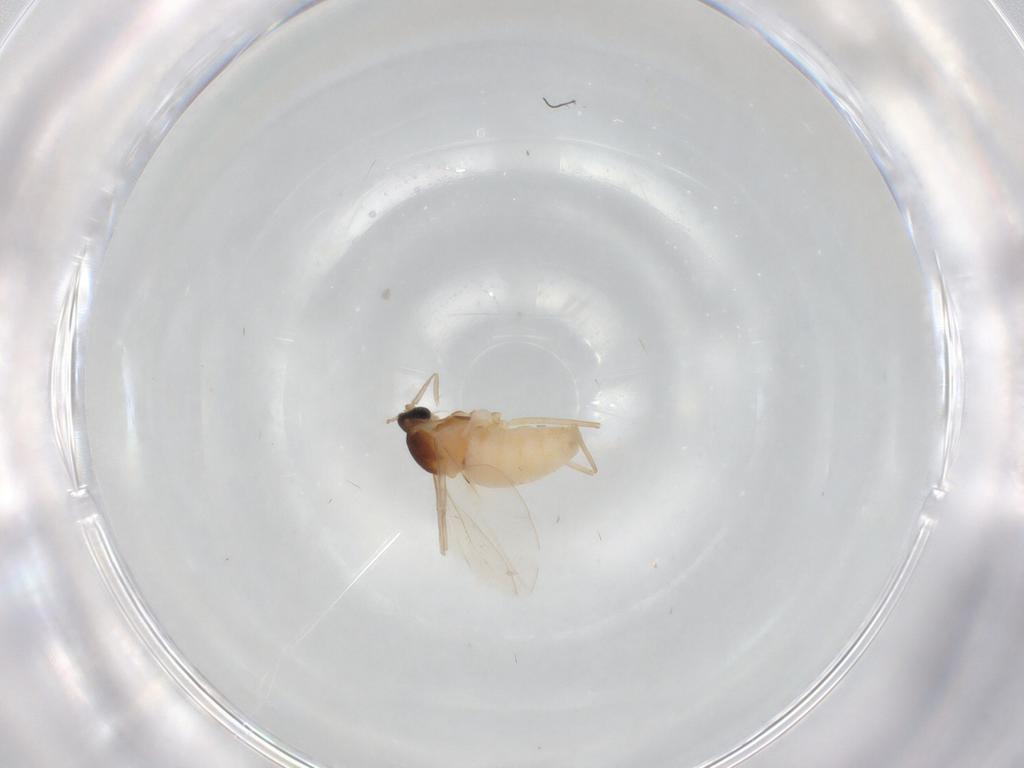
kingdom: Animalia
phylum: Arthropoda
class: Insecta
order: Diptera
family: Cecidomyiidae
